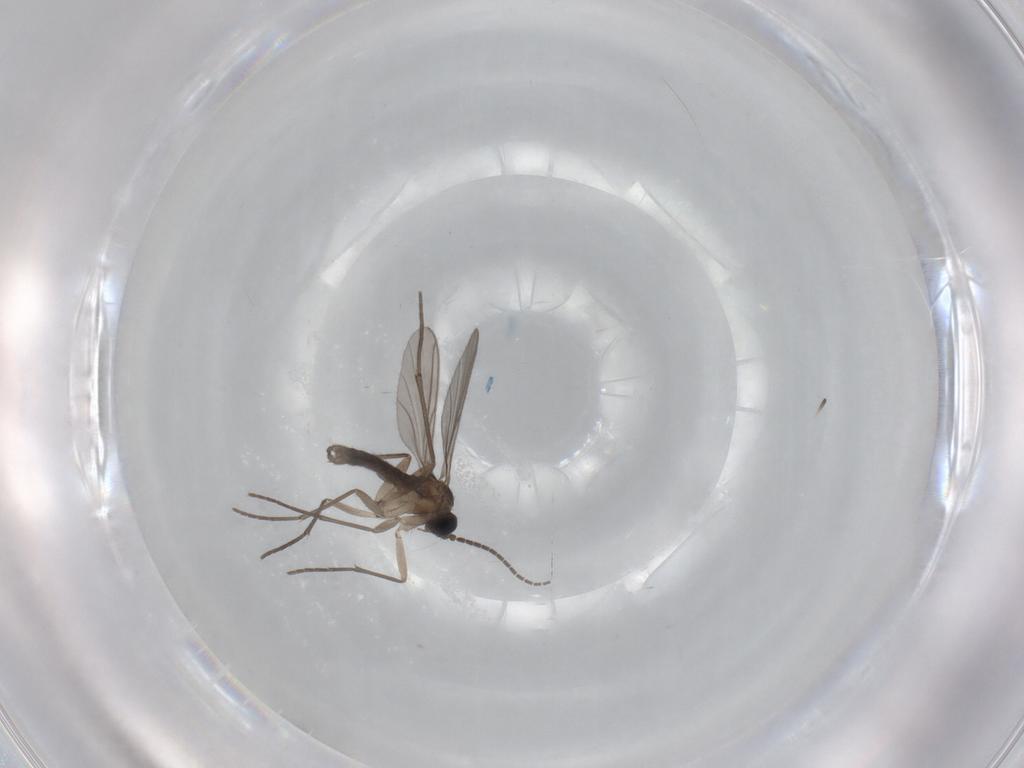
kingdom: Animalia
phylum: Arthropoda
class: Insecta
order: Diptera
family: Sciaridae
